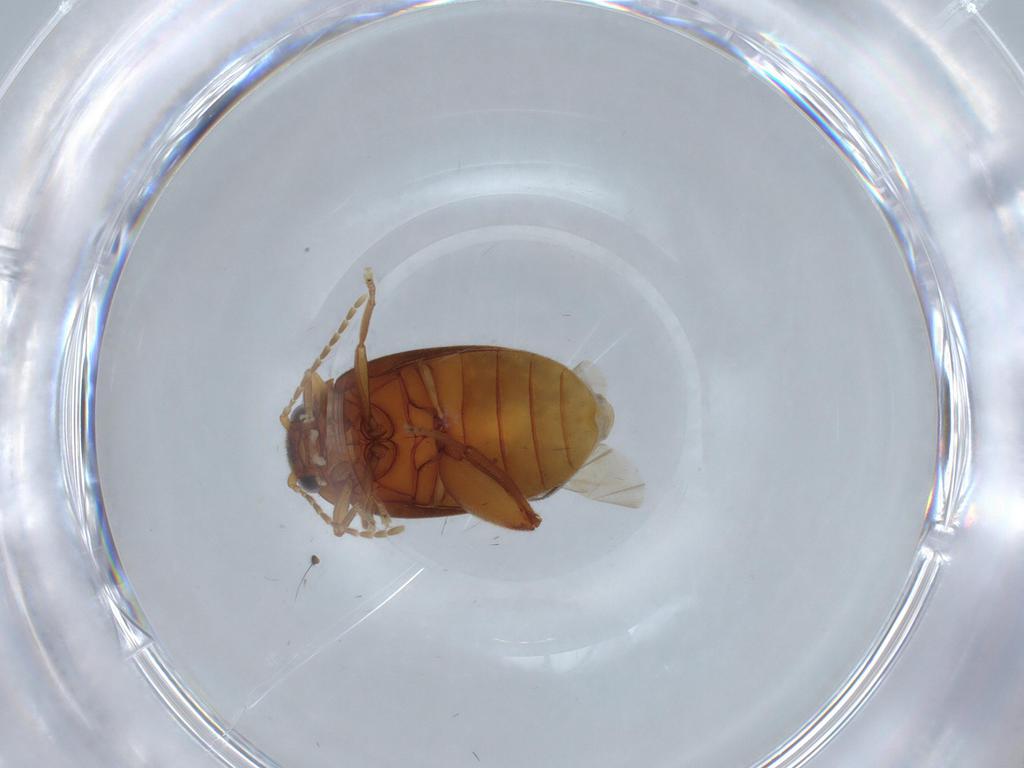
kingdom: Animalia
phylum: Arthropoda
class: Insecta
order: Coleoptera
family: Scirtidae
